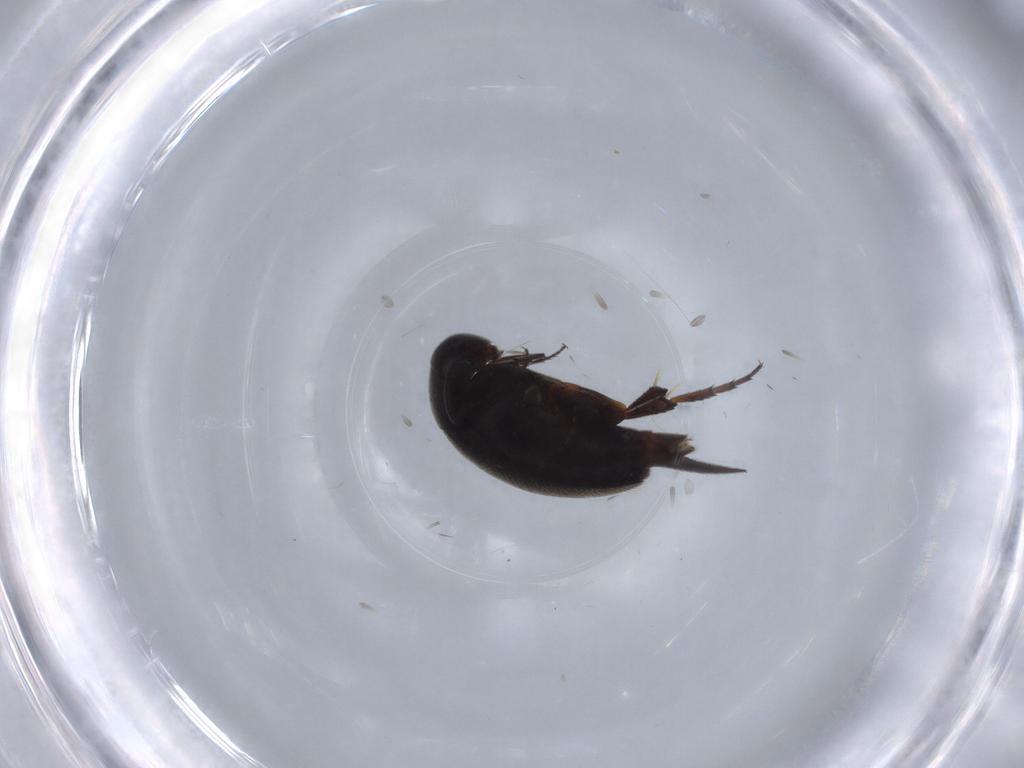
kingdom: Animalia
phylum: Arthropoda
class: Insecta
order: Coleoptera
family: Mordellidae
